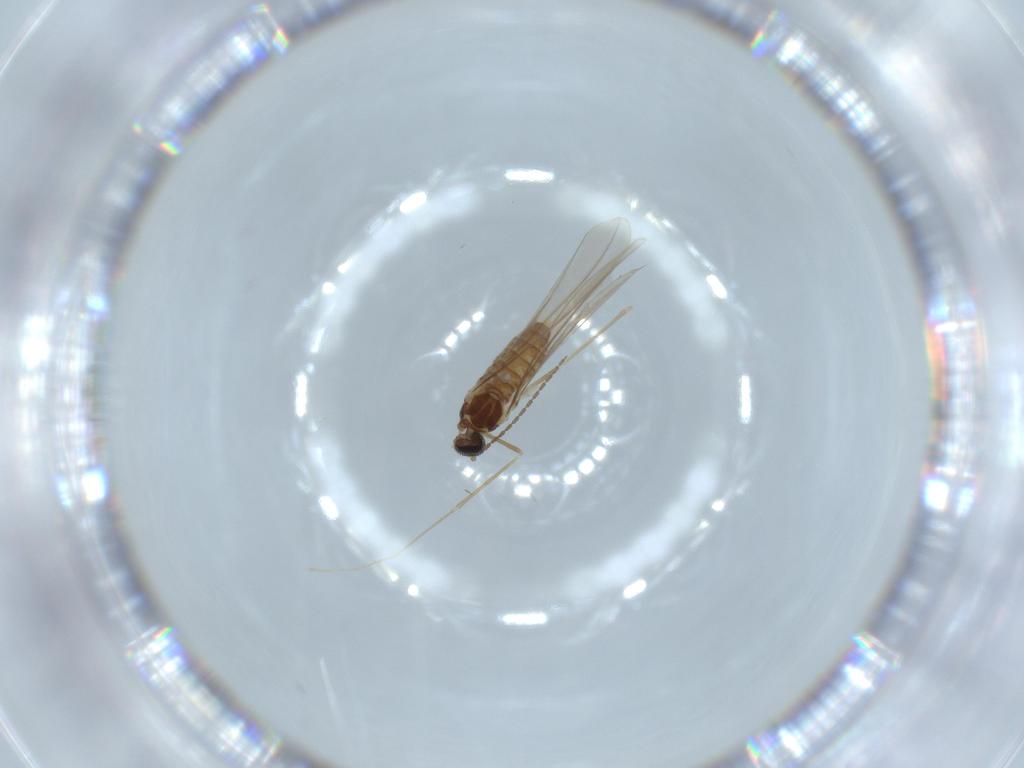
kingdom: Animalia
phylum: Arthropoda
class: Insecta
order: Diptera
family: Cecidomyiidae
